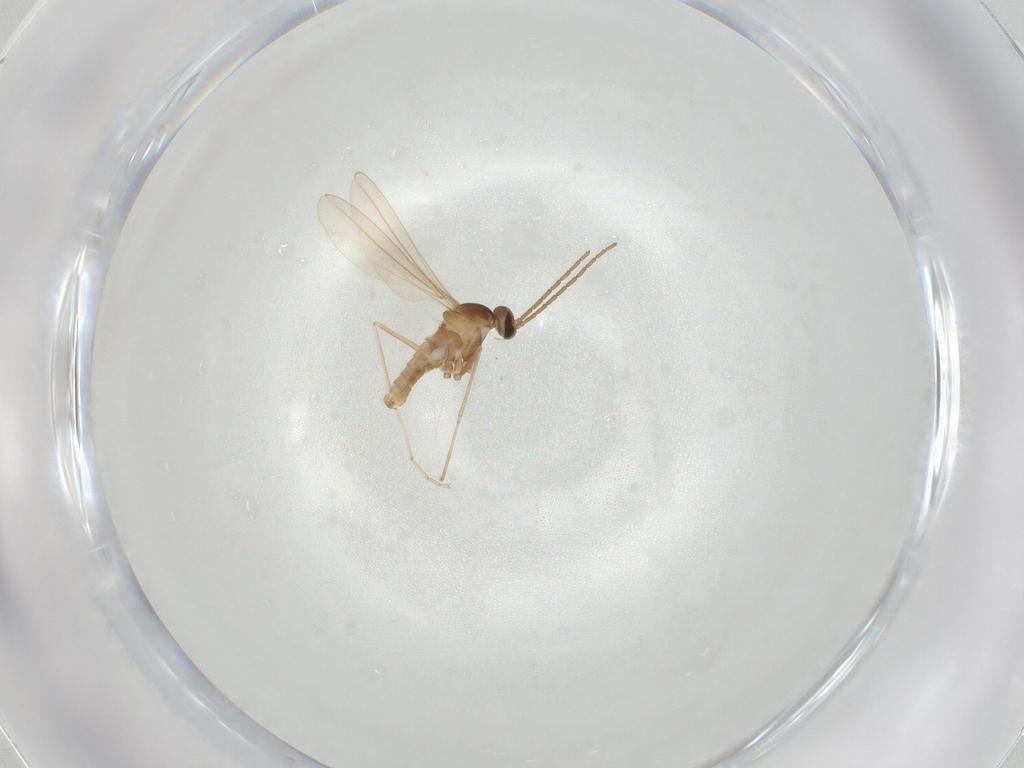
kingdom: Animalia
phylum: Arthropoda
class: Insecta
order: Diptera
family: Cecidomyiidae
